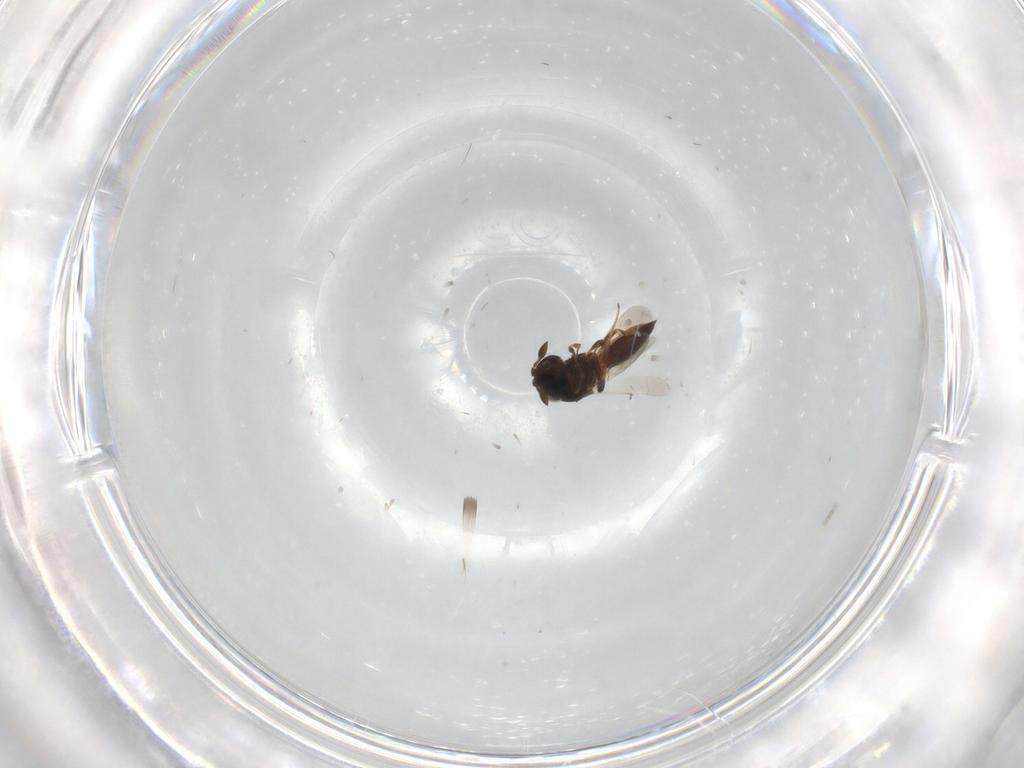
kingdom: Animalia
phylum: Arthropoda
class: Insecta
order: Hymenoptera
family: Scelionidae
